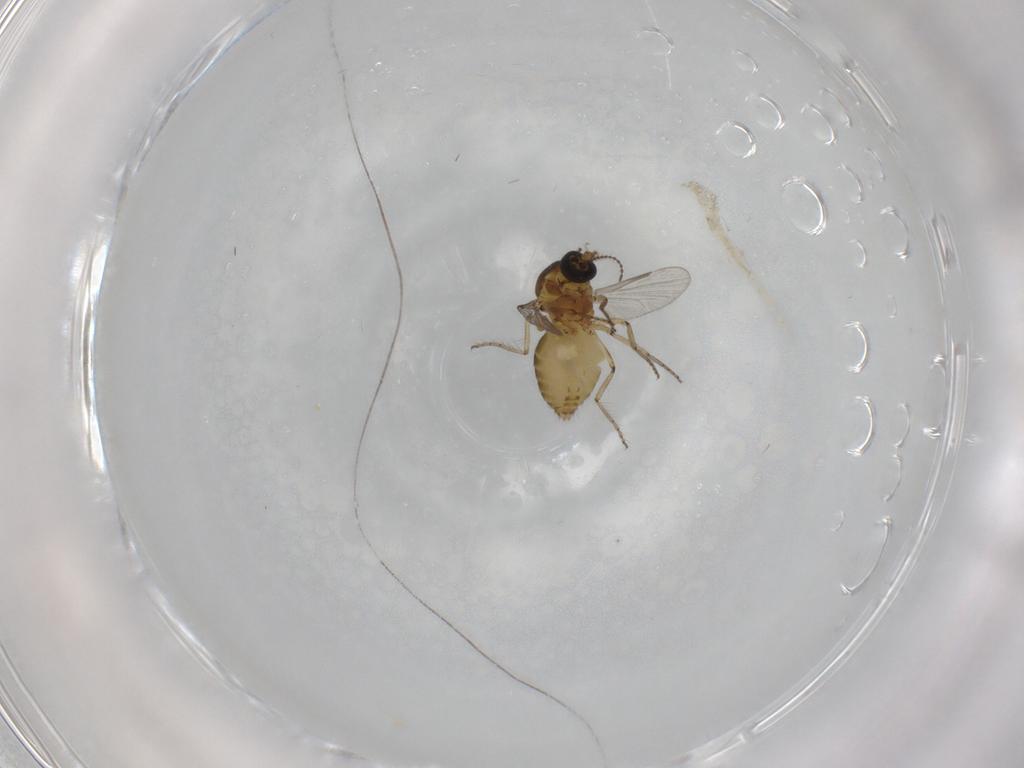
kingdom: Animalia
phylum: Arthropoda
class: Insecta
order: Diptera
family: Ceratopogonidae
